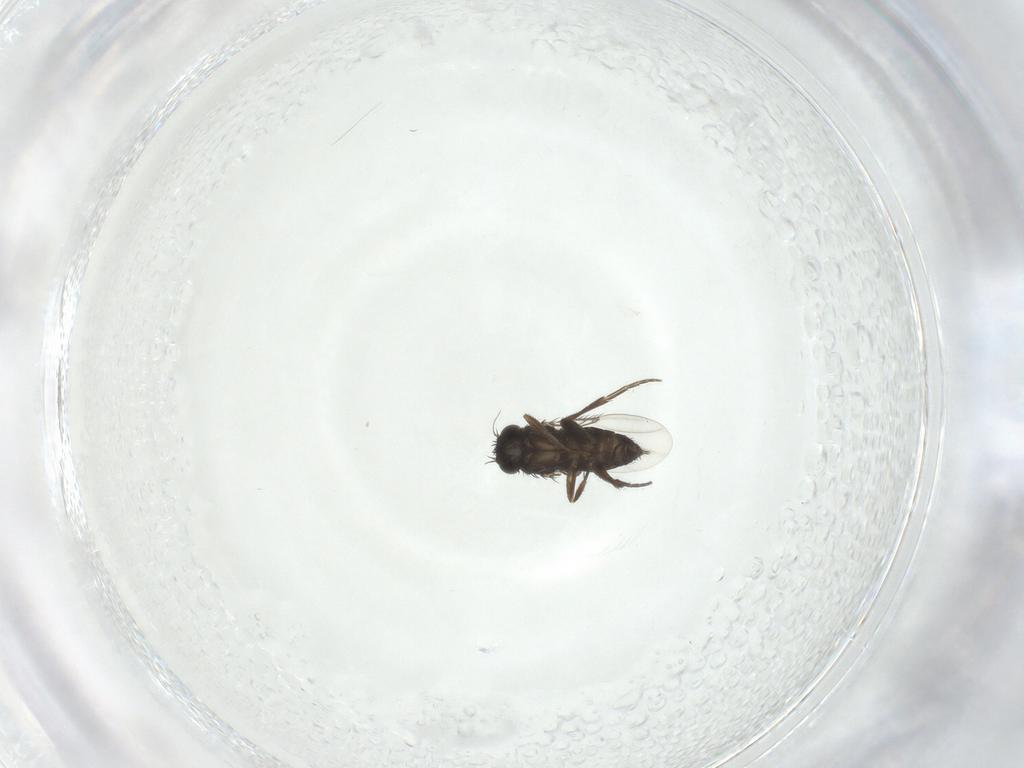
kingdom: Animalia
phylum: Arthropoda
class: Insecta
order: Diptera
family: Phoridae
